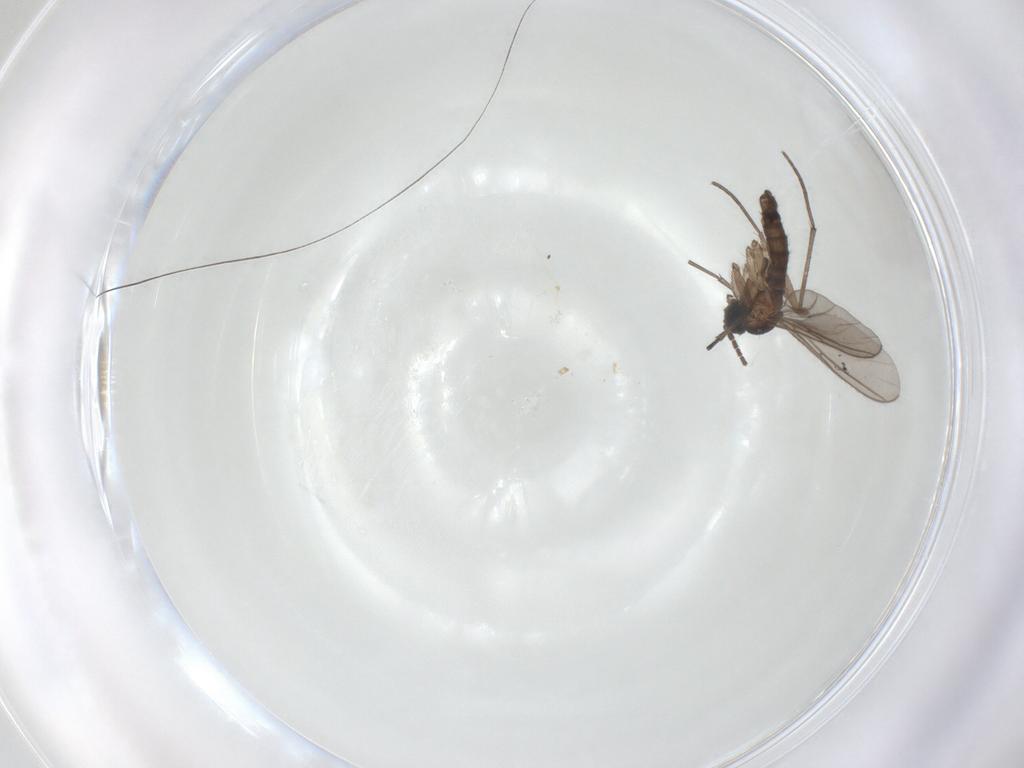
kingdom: Animalia
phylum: Arthropoda
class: Insecta
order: Diptera
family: Sciaridae
